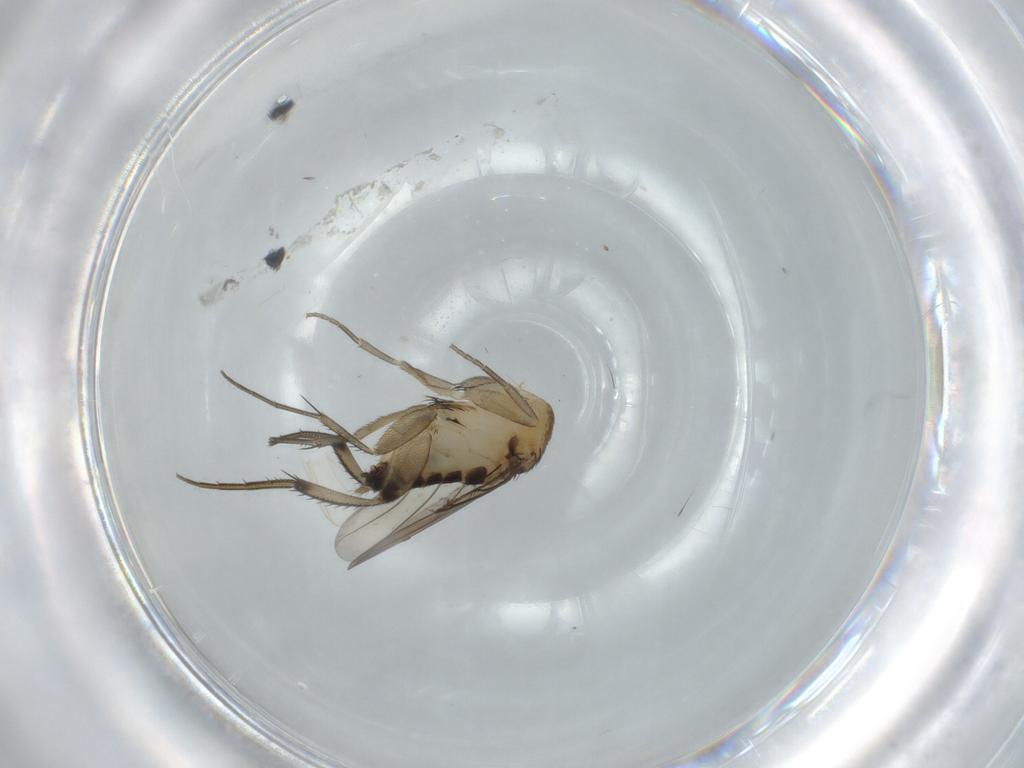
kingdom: Animalia
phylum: Arthropoda
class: Insecta
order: Diptera
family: Phoridae
